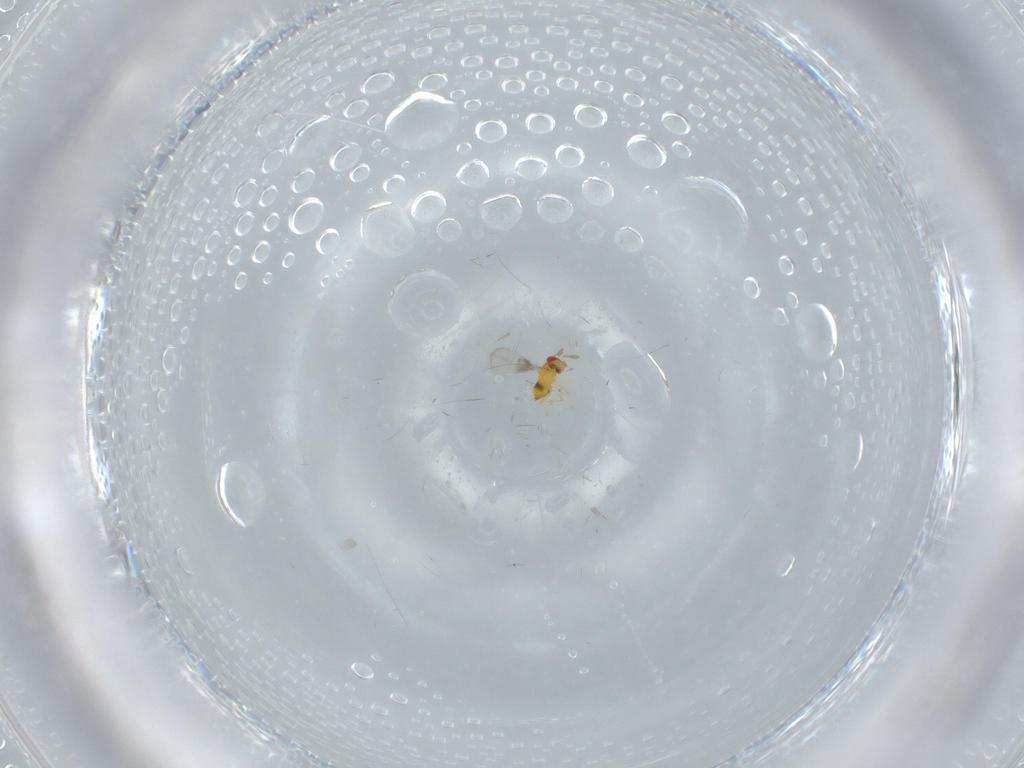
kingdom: Animalia
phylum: Arthropoda
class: Insecta
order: Hymenoptera
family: Trichogrammatidae
